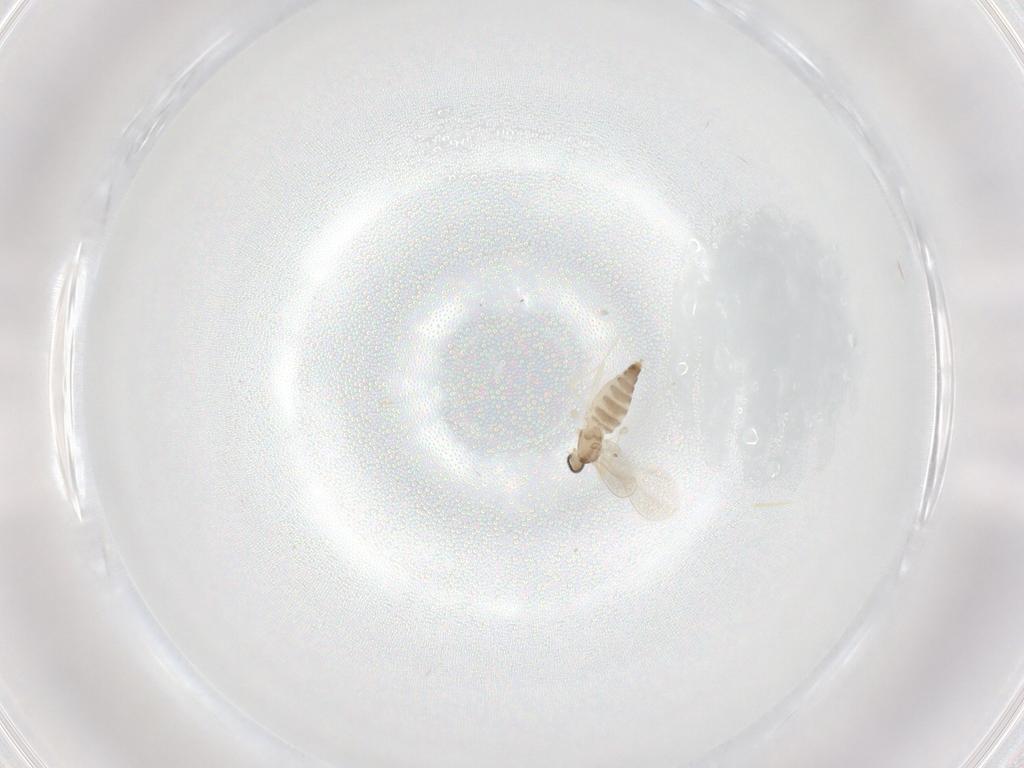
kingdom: Animalia
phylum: Arthropoda
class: Insecta
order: Diptera
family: Cecidomyiidae
